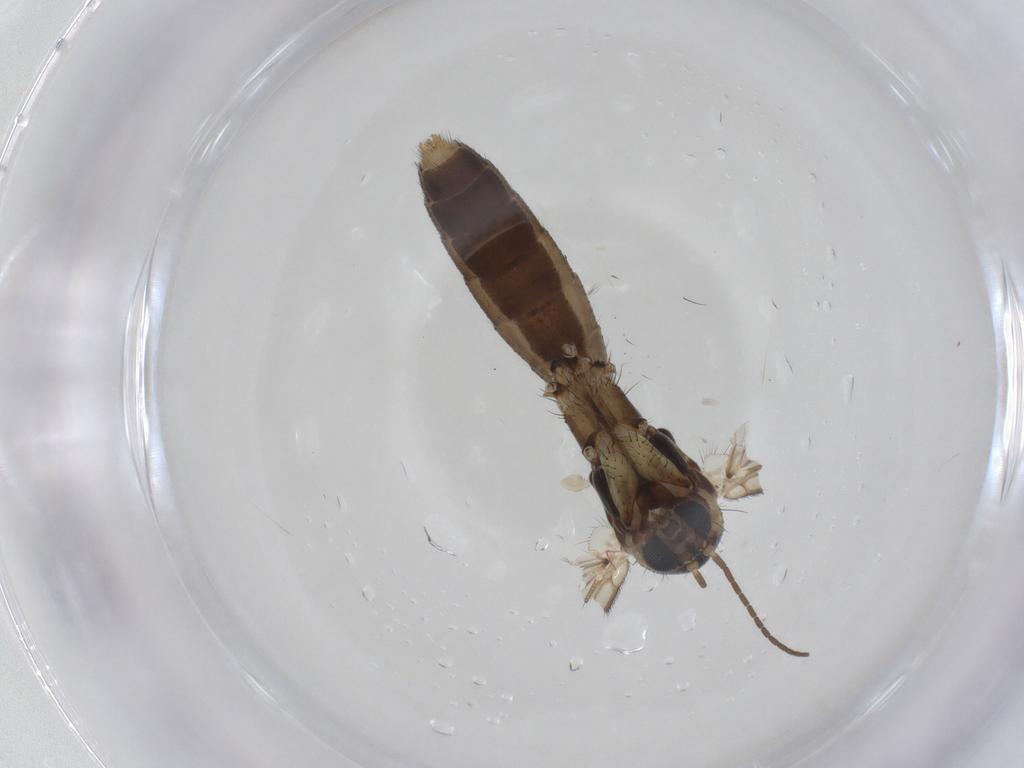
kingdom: Animalia
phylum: Arthropoda
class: Insecta
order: Diptera
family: Mycetophilidae
